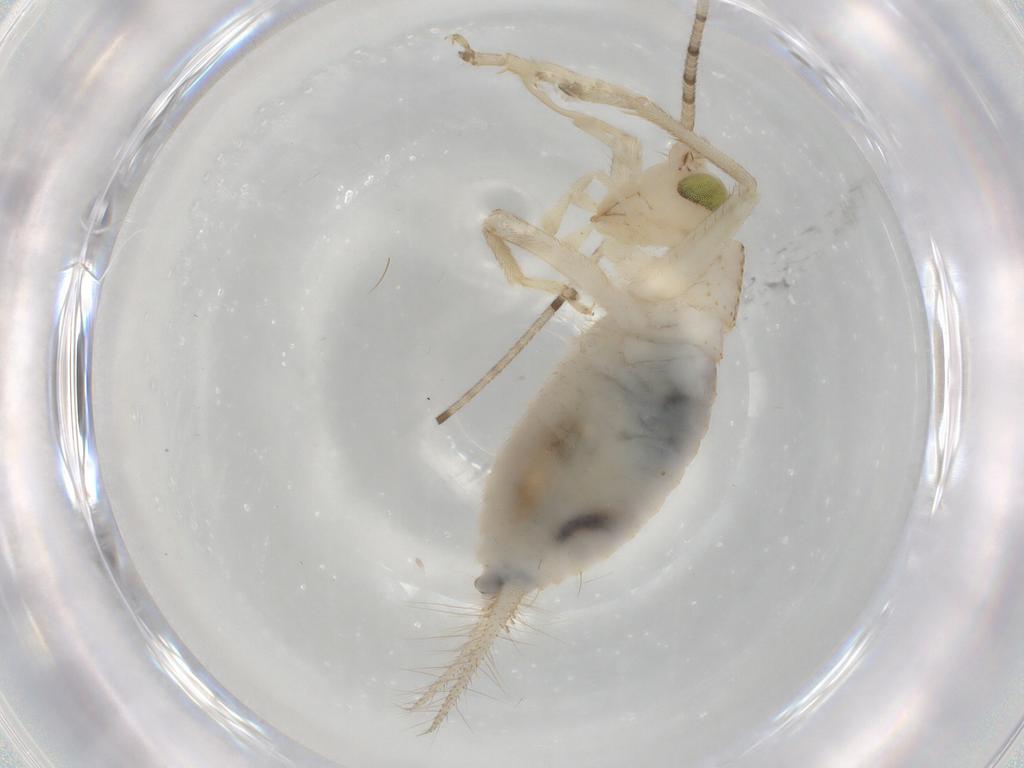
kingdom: Animalia
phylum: Arthropoda
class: Insecta
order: Orthoptera
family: Trigonidiidae
